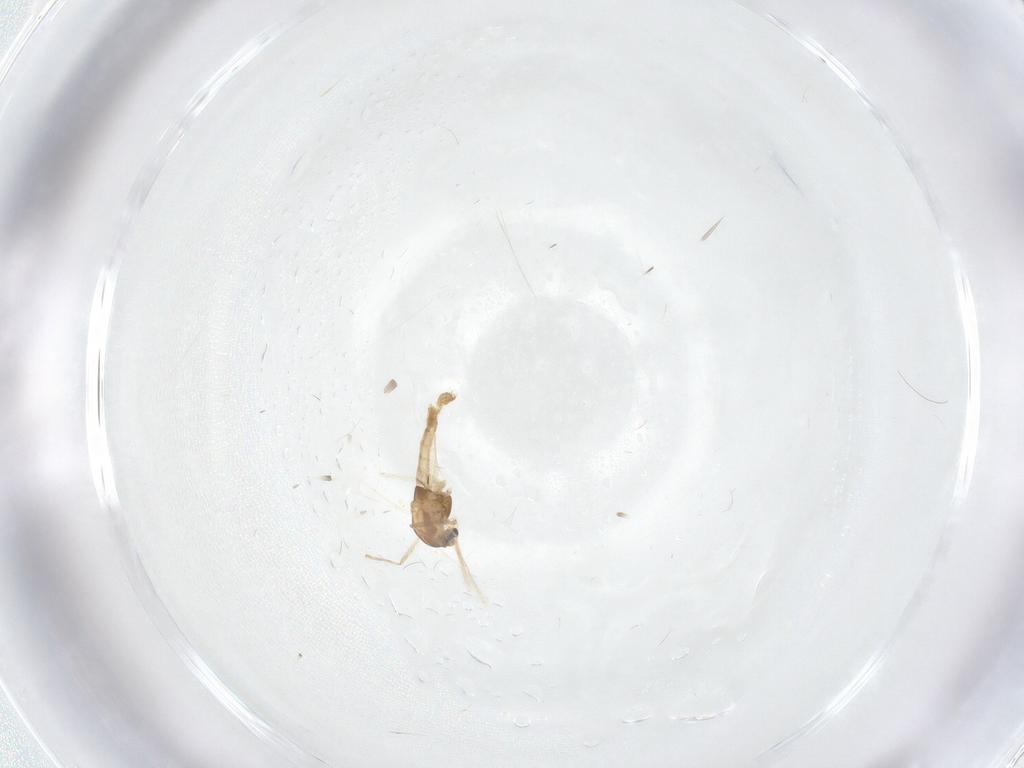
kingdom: Animalia
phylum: Arthropoda
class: Insecta
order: Diptera
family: Chironomidae
